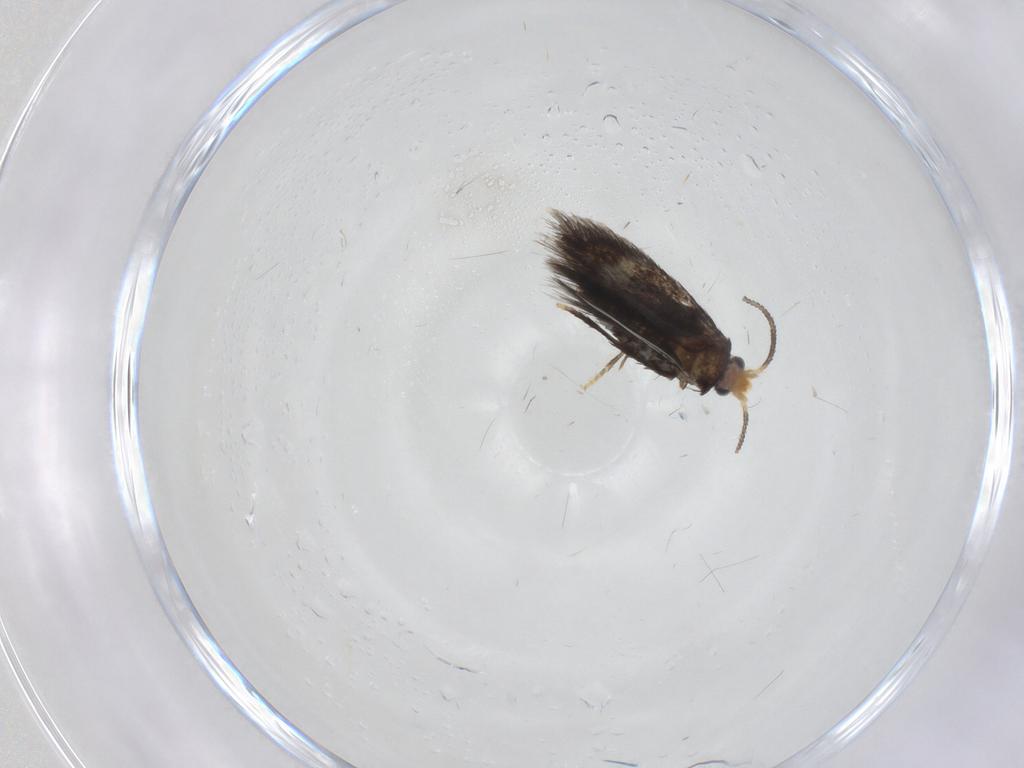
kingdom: Animalia
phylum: Arthropoda
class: Insecta
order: Lepidoptera
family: Nepticulidae
